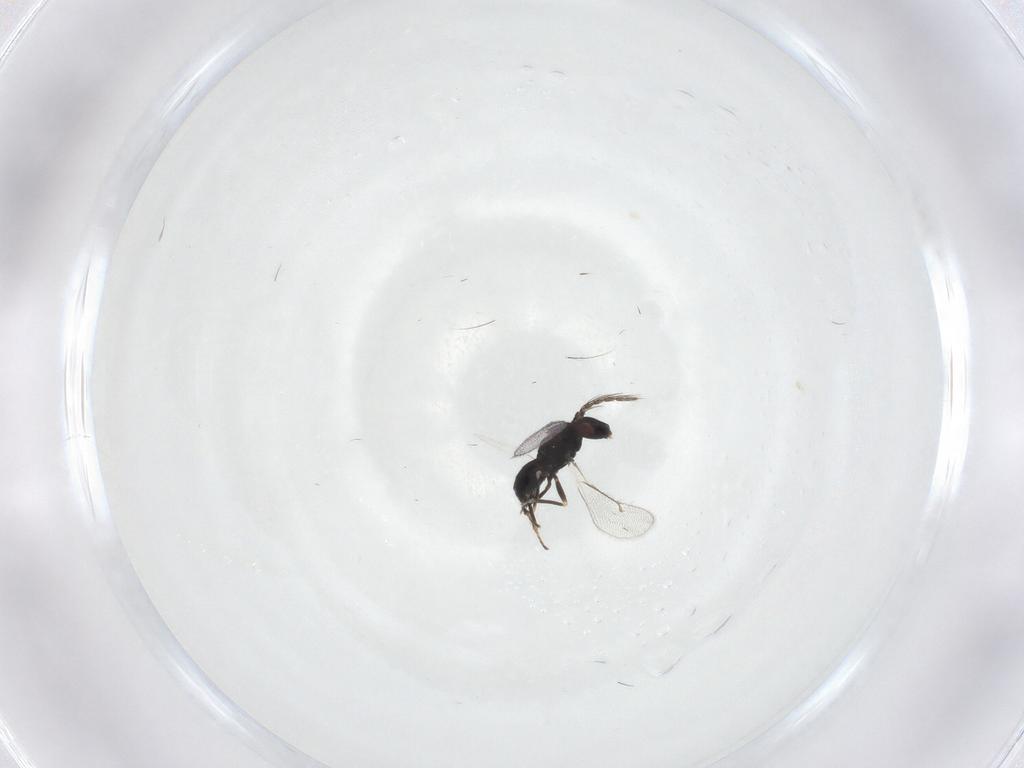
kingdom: Animalia
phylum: Arthropoda
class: Insecta
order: Hymenoptera
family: Eulophidae
